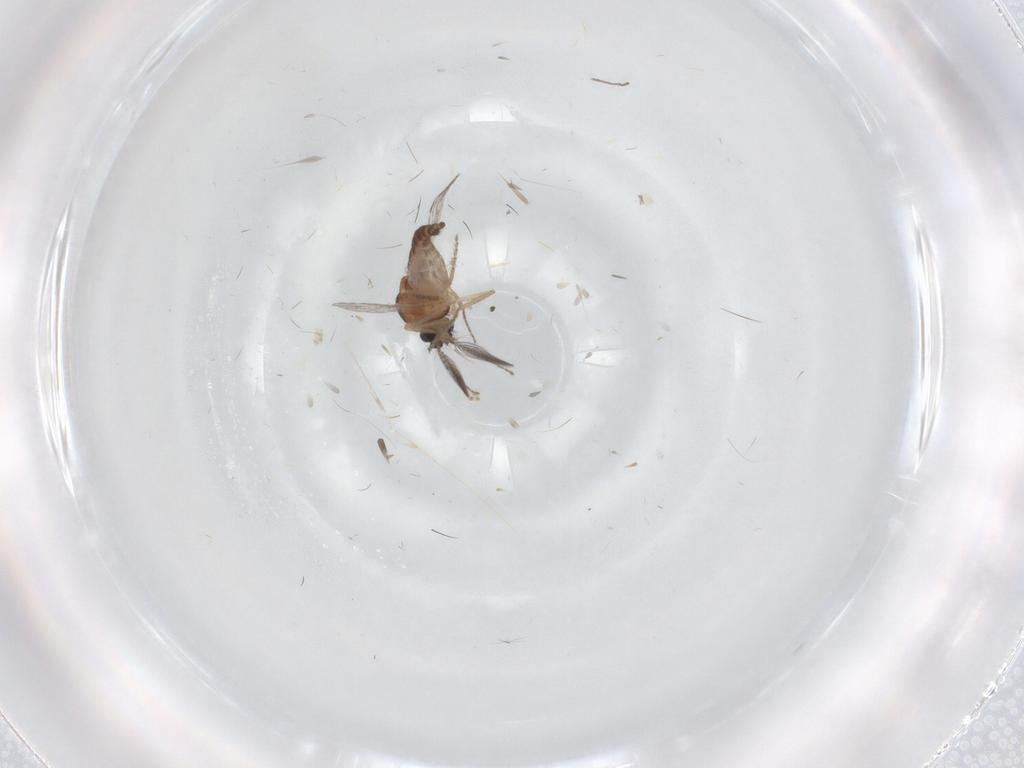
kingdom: Animalia
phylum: Arthropoda
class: Insecta
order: Diptera
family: Ceratopogonidae
